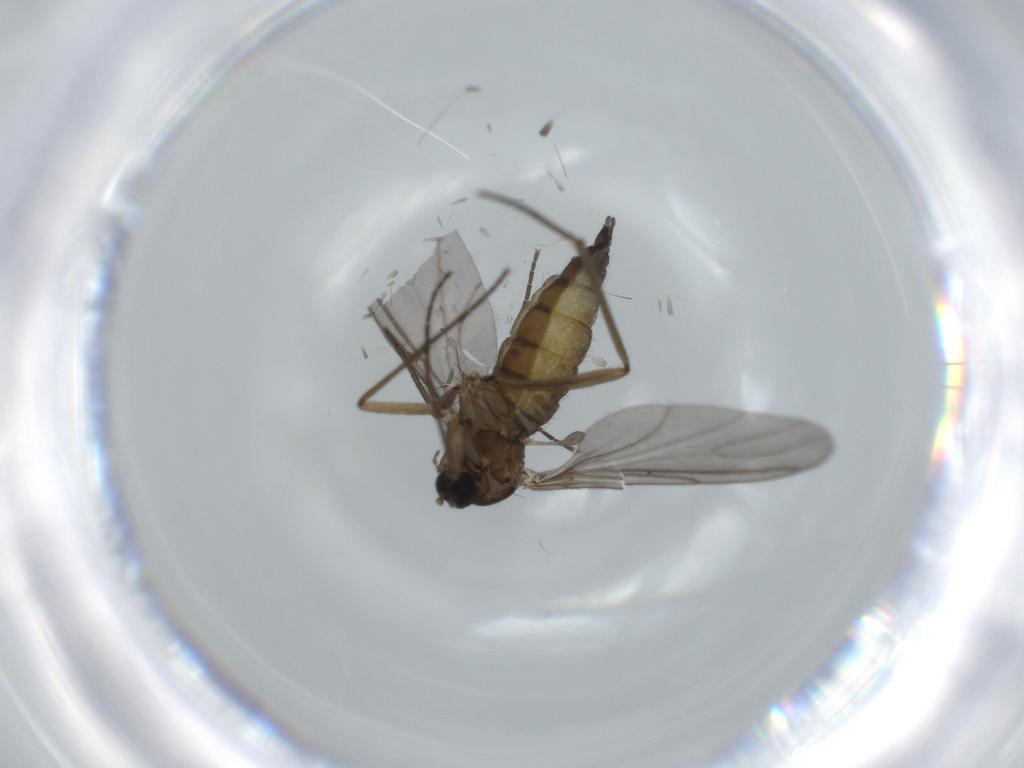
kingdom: Animalia
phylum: Arthropoda
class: Insecta
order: Diptera
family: Sciaridae
